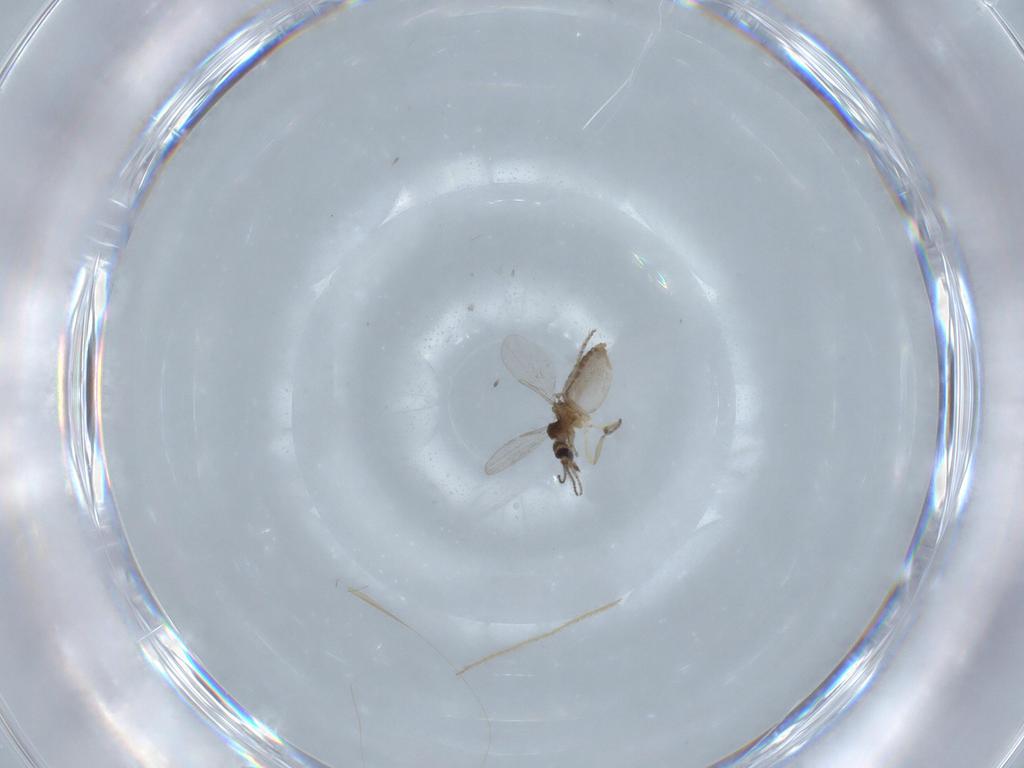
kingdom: Animalia
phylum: Arthropoda
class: Insecta
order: Diptera
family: Ceratopogonidae
